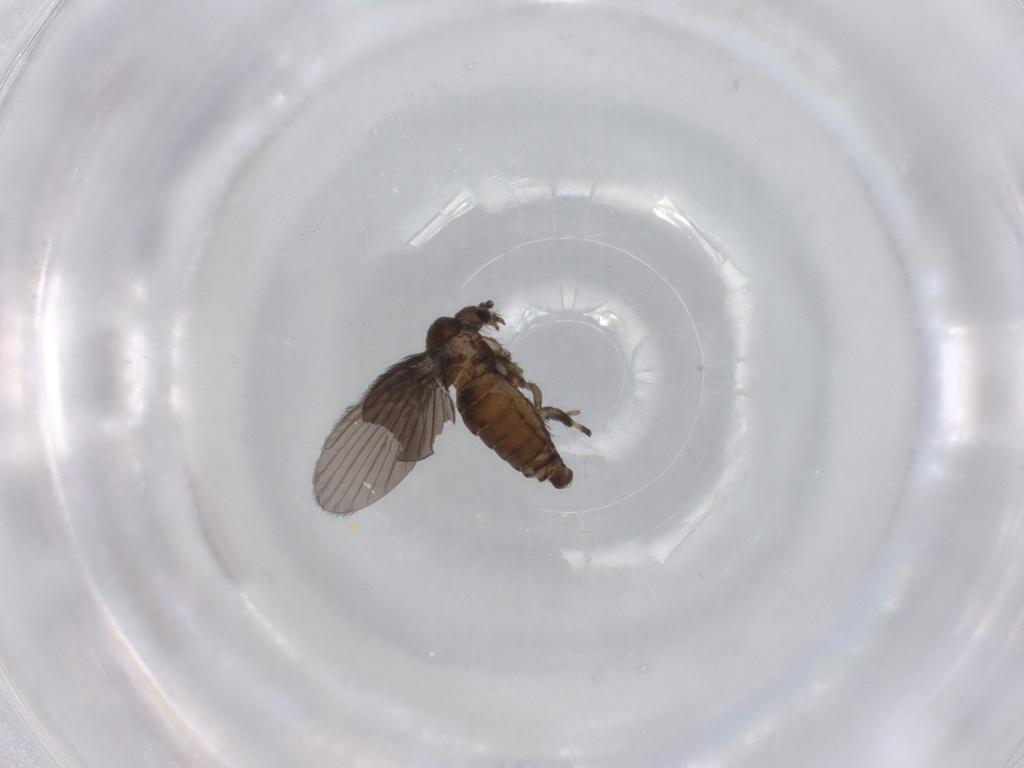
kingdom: Animalia
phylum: Arthropoda
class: Insecta
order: Diptera
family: Psychodidae
